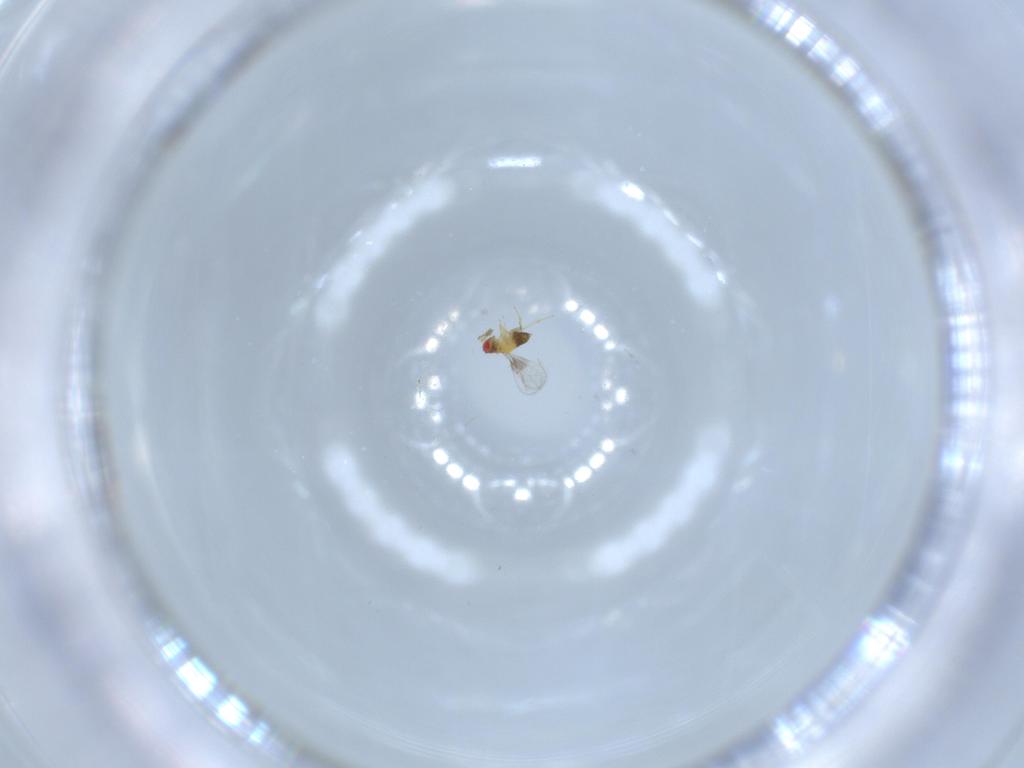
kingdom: Animalia
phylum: Arthropoda
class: Insecta
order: Hymenoptera
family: Trichogrammatidae
